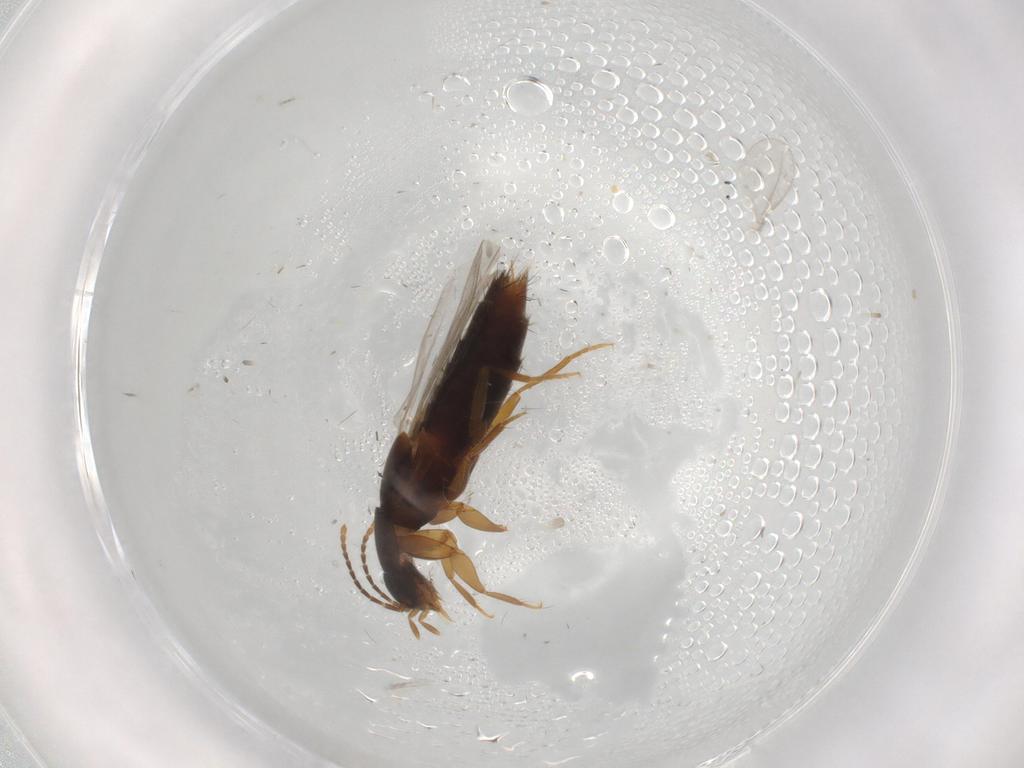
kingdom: Animalia
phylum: Arthropoda
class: Insecta
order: Coleoptera
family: Staphylinidae
